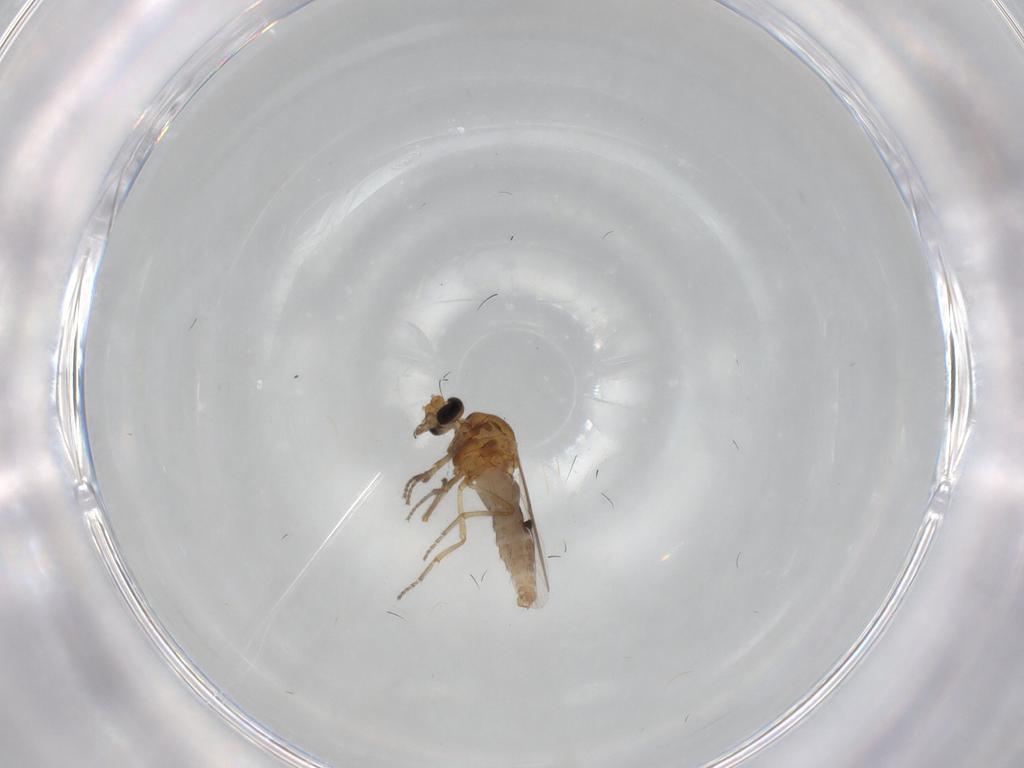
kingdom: Animalia
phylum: Arthropoda
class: Insecta
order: Diptera
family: Ceratopogonidae
